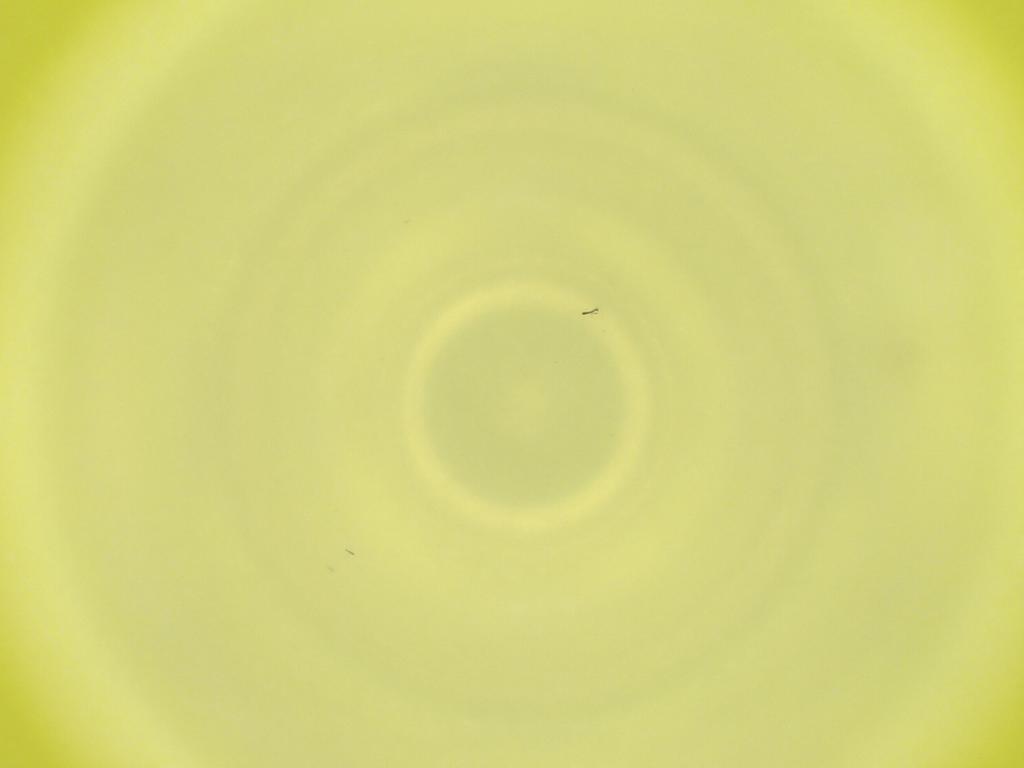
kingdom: Animalia
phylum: Arthropoda
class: Insecta
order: Diptera
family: Cecidomyiidae
